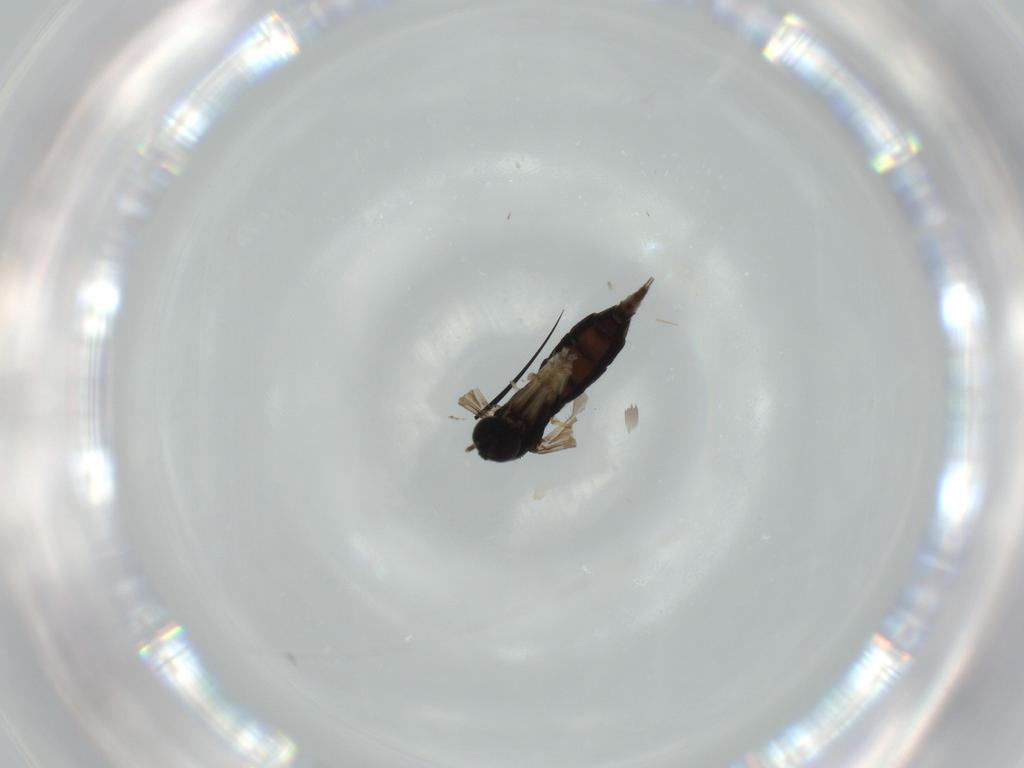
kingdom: Animalia
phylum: Arthropoda
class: Insecta
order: Diptera
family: Sciaridae
